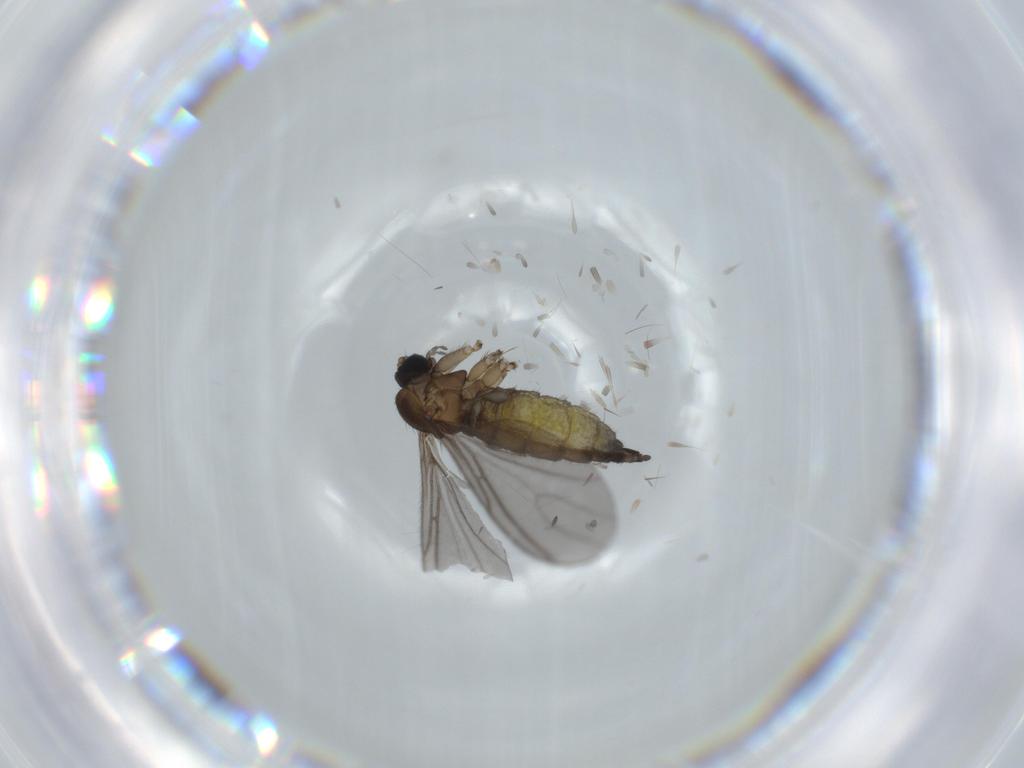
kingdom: Animalia
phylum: Arthropoda
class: Insecta
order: Diptera
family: Sciaridae
